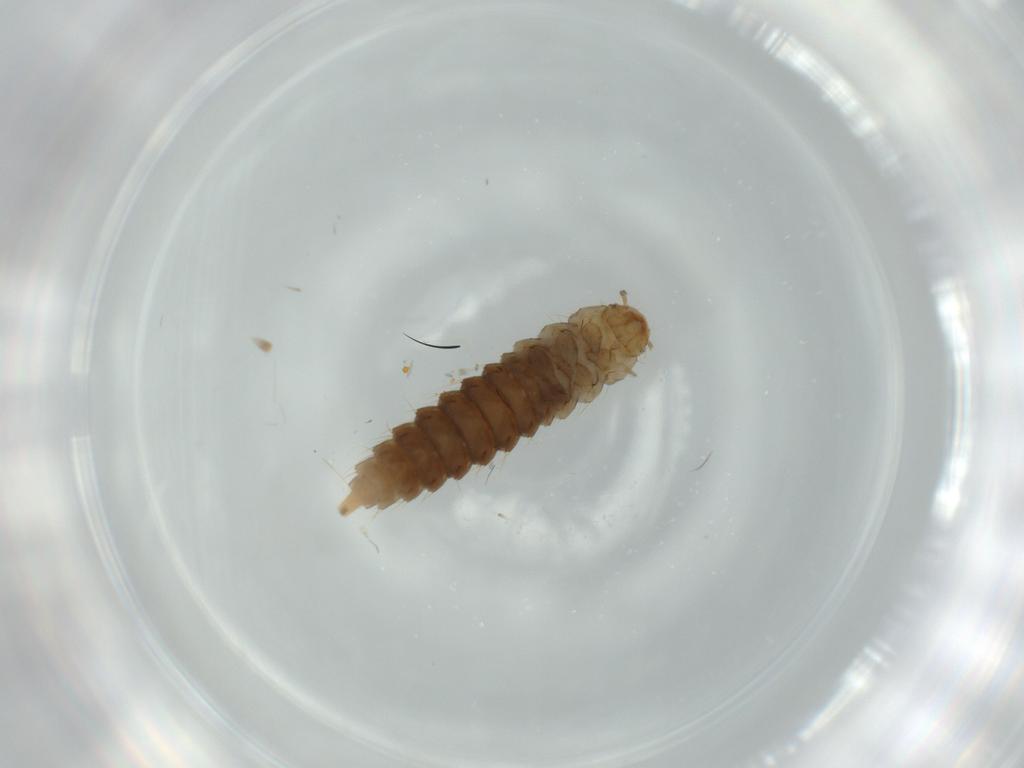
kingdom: Animalia
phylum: Arthropoda
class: Insecta
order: Coleoptera
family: Staphylinidae
